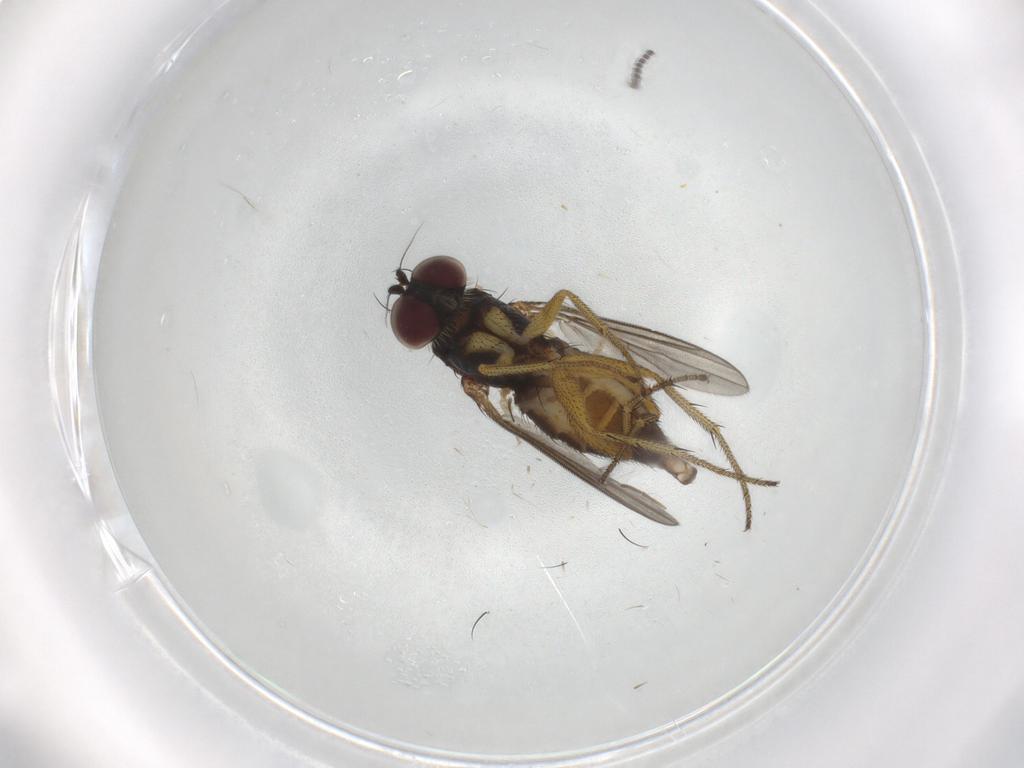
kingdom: Animalia
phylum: Arthropoda
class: Insecta
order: Diptera
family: Chironomidae
